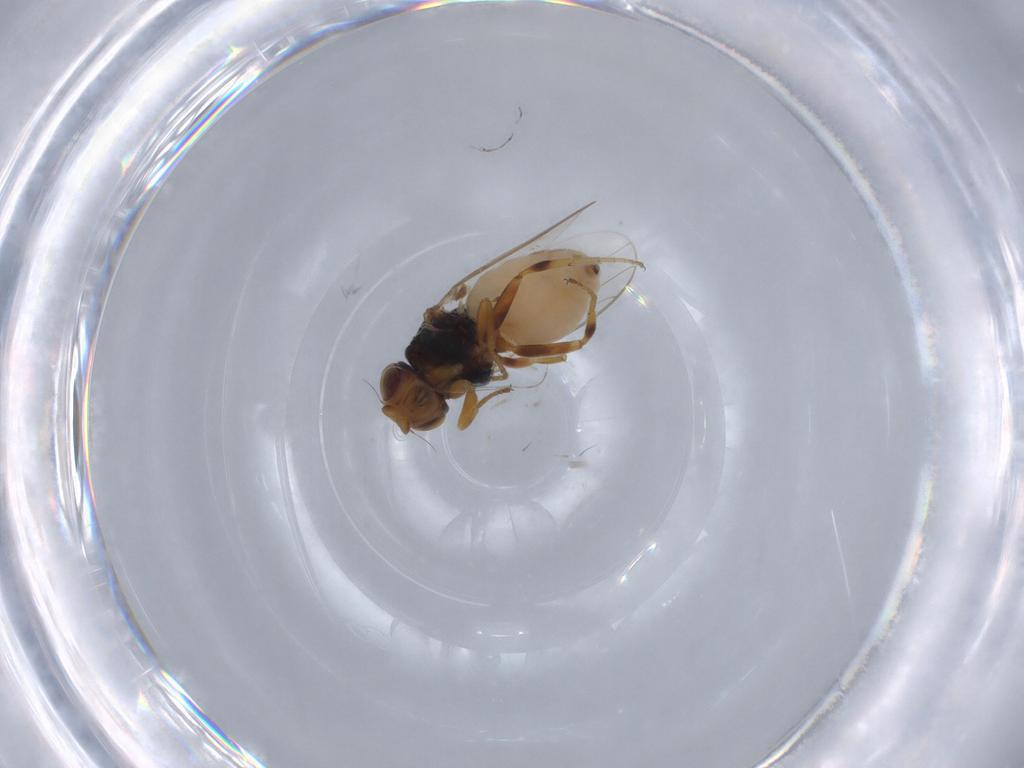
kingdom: Animalia
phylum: Arthropoda
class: Insecta
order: Diptera
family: Chloropidae
